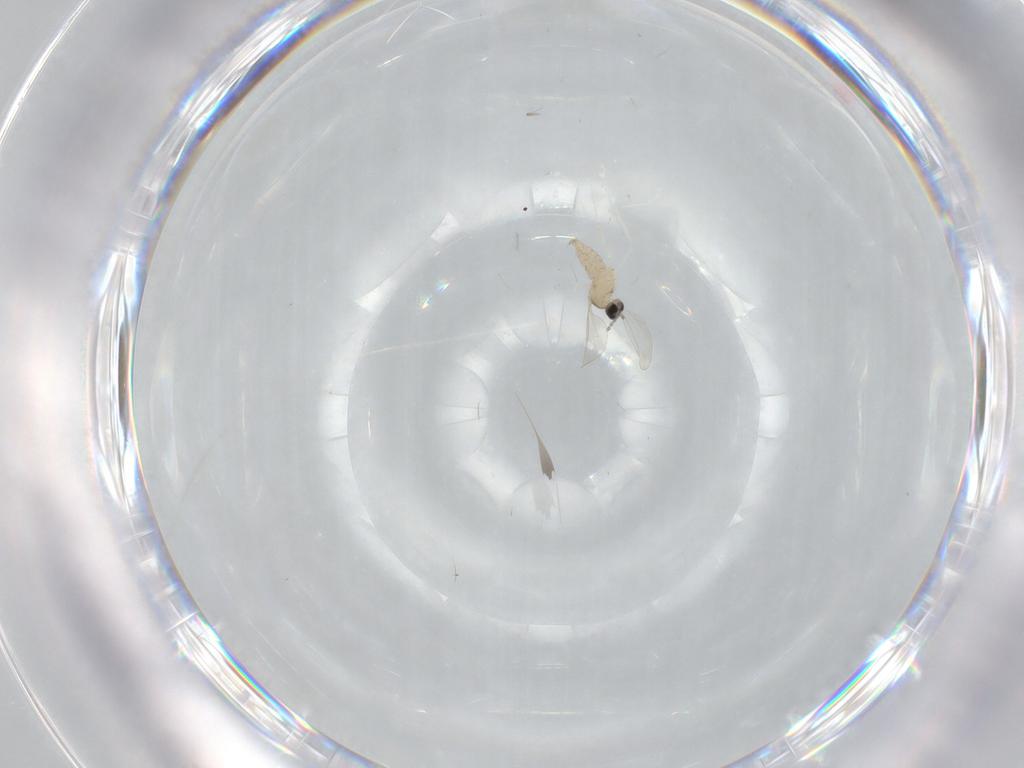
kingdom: Animalia
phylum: Arthropoda
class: Insecta
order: Diptera
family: Cecidomyiidae
